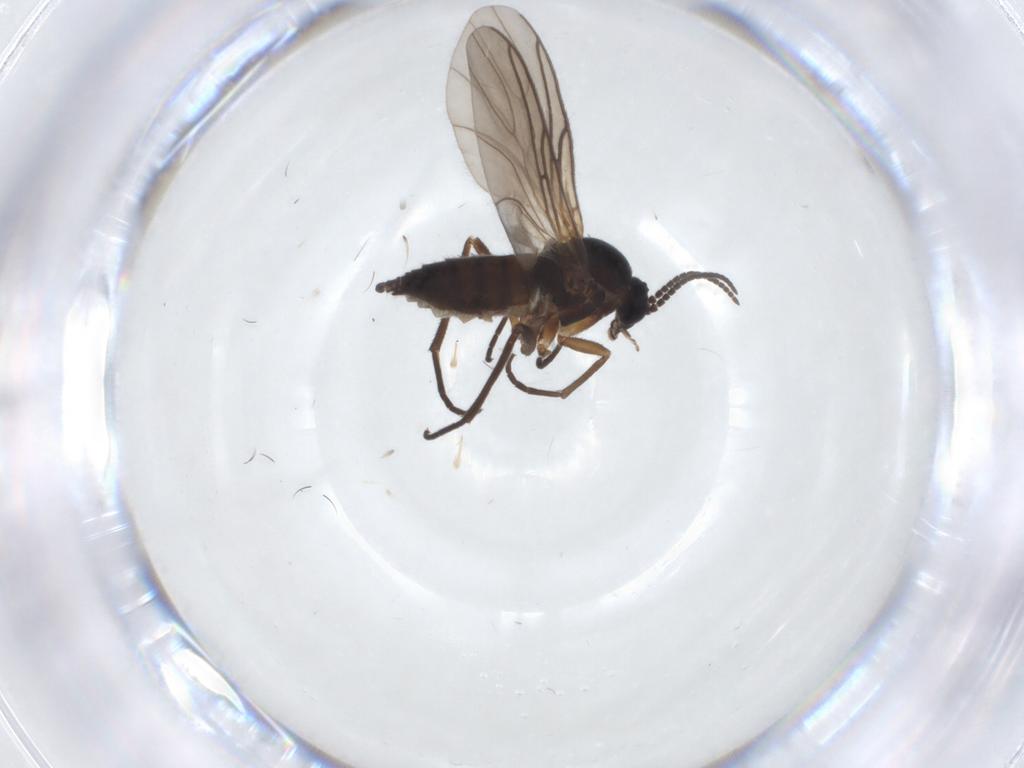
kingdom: Animalia
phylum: Arthropoda
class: Insecta
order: Diptera
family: Sciaridae
